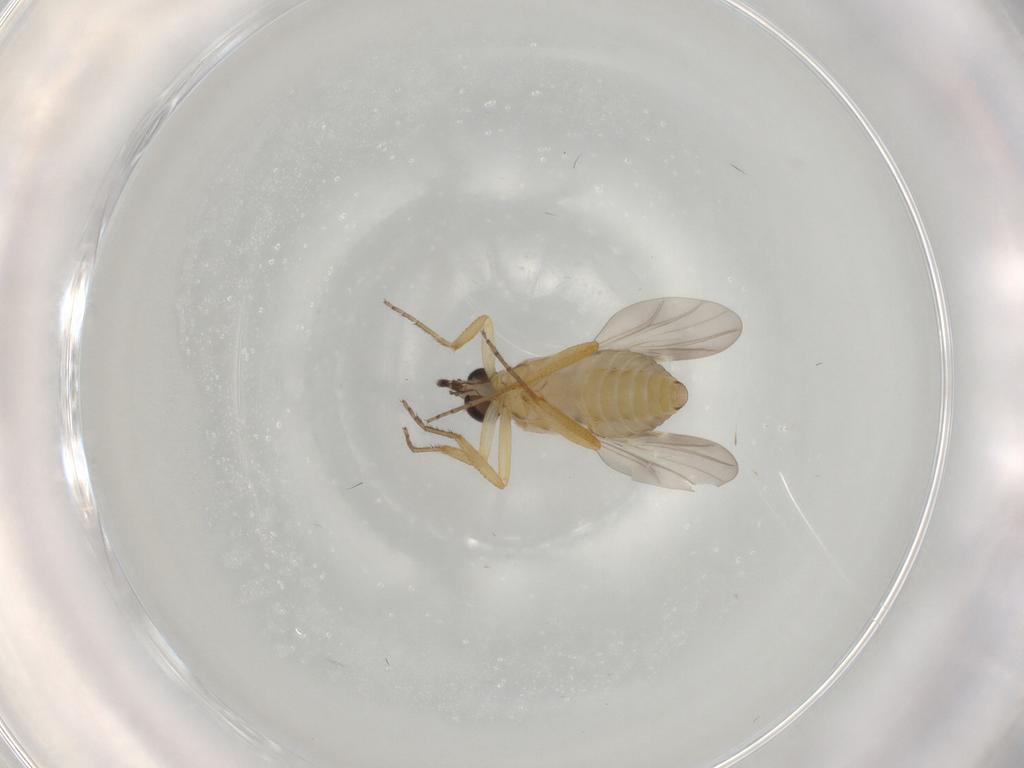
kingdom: Animalia
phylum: Arthropoda
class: Insecta
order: Diptera
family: Ceratopogonidae
